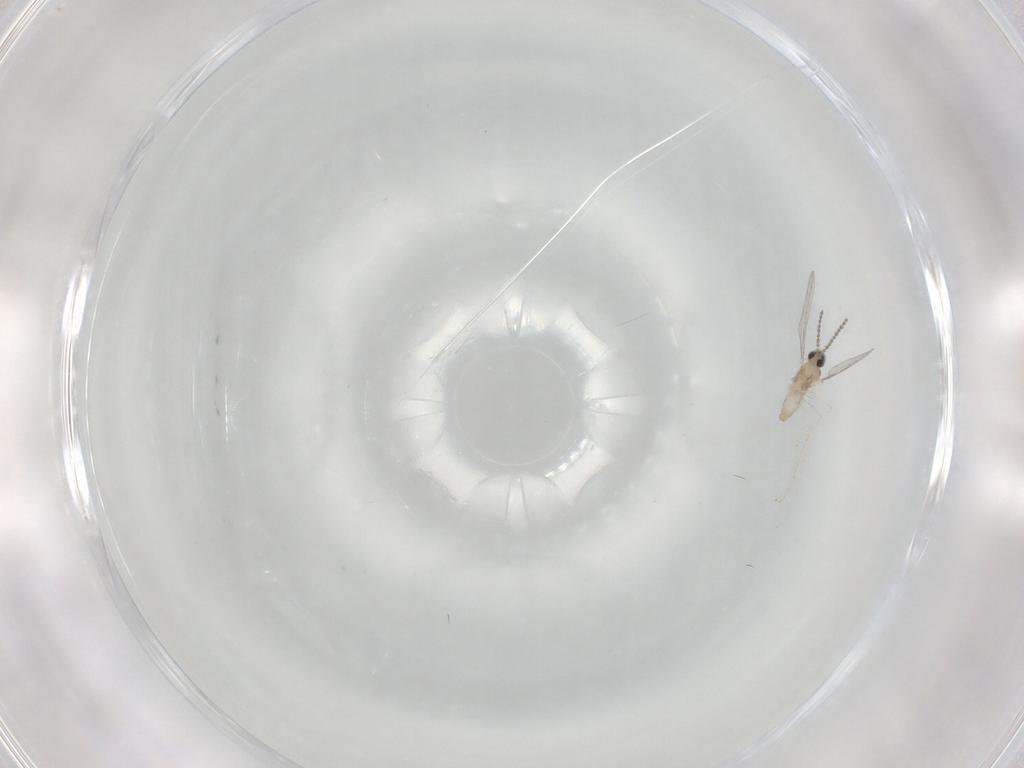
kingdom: Animalia
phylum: Arthropoda
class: Insecta
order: Diptera
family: Cecidomyiidae
